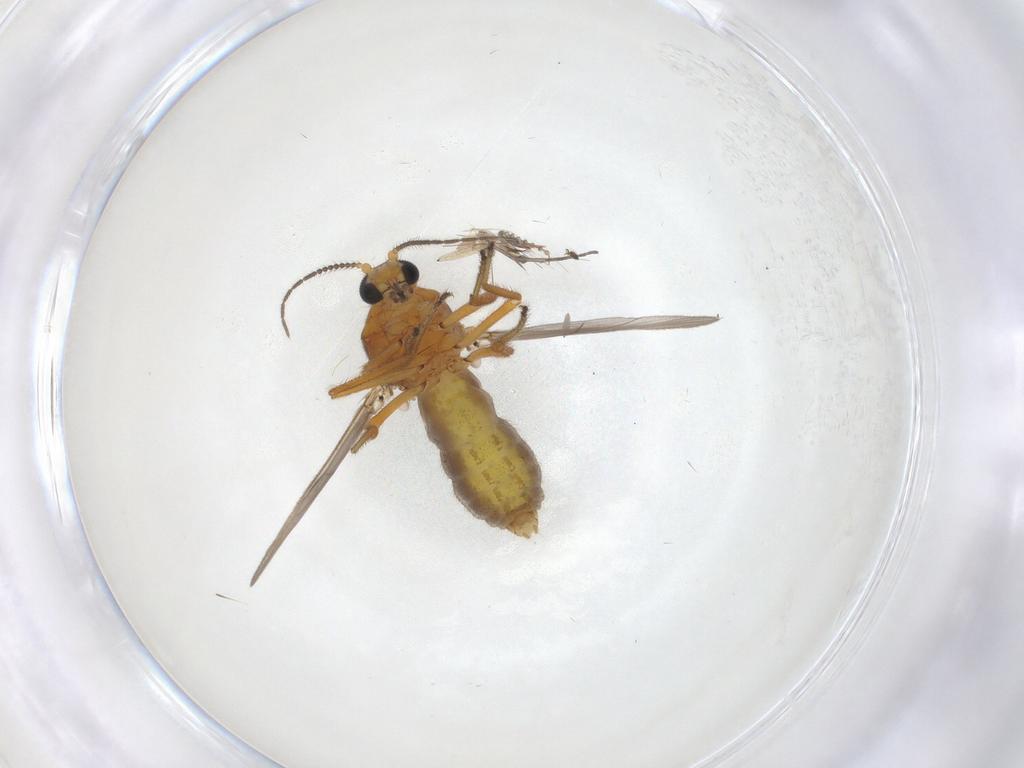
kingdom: Animalia
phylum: Arthropoda
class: Insecta
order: Diptera
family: Ceratopogonidae
